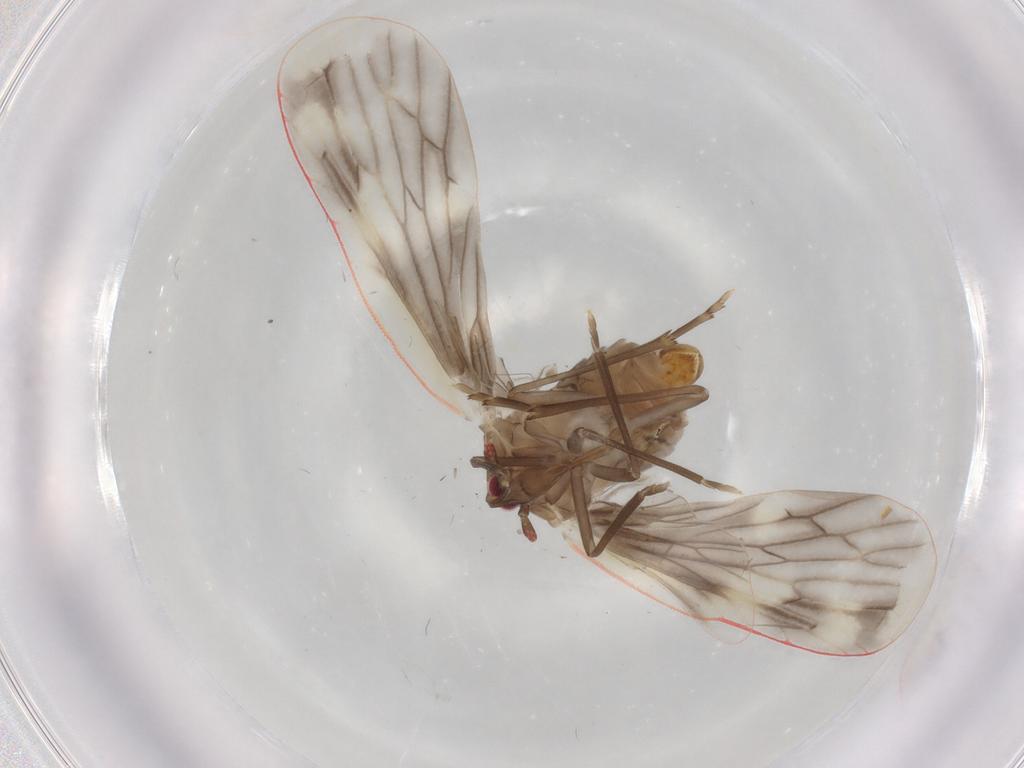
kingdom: Animalia
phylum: Arthropoda
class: Insecta
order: Hemiptera
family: Derbidae
